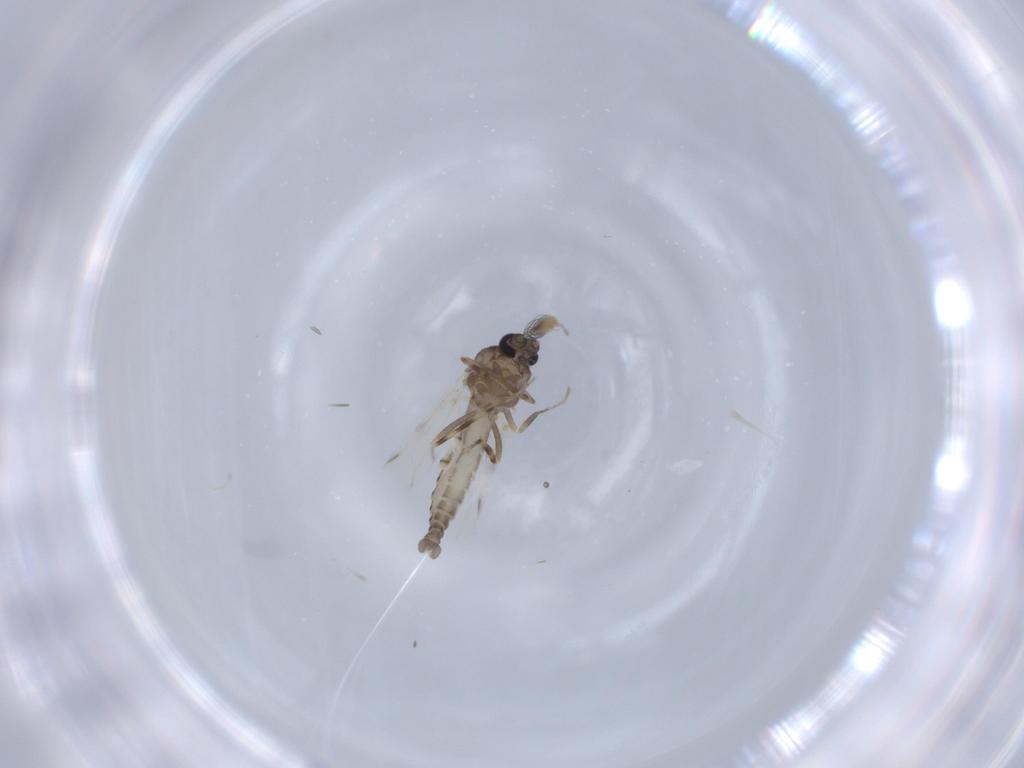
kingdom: Animalia
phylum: Arthropoda
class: Insecta
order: Diptera
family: Ceratopogonidae
